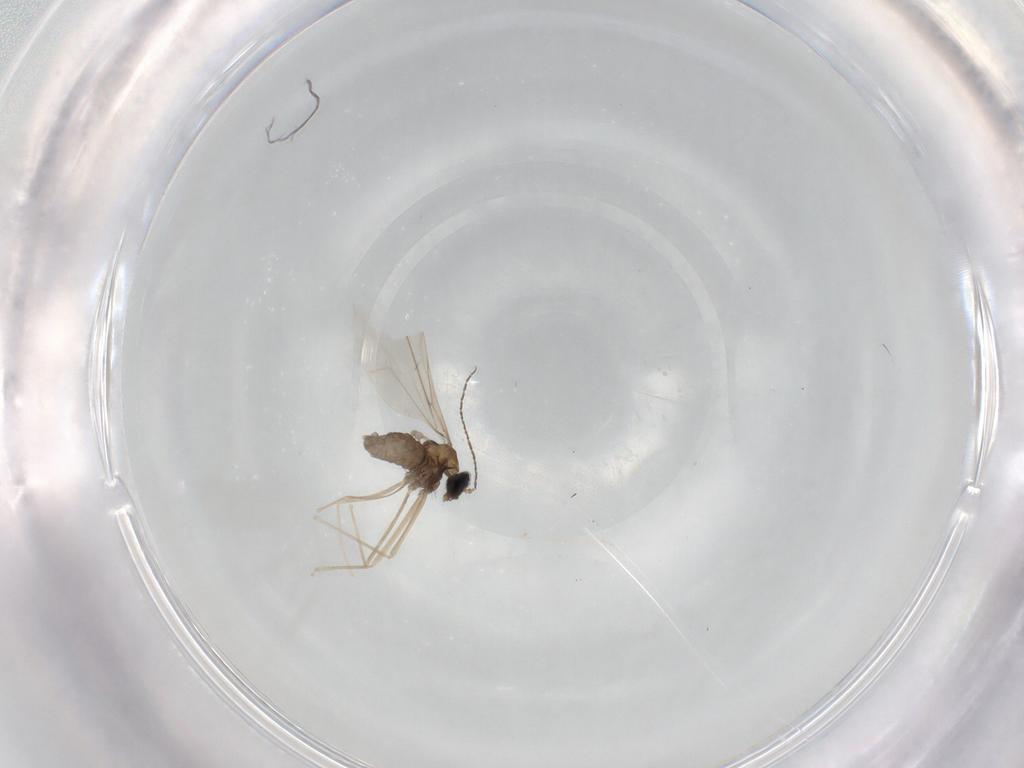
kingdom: Animalia
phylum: Arthropoda
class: Insecta
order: Diptera
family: Cecidomyiidae
